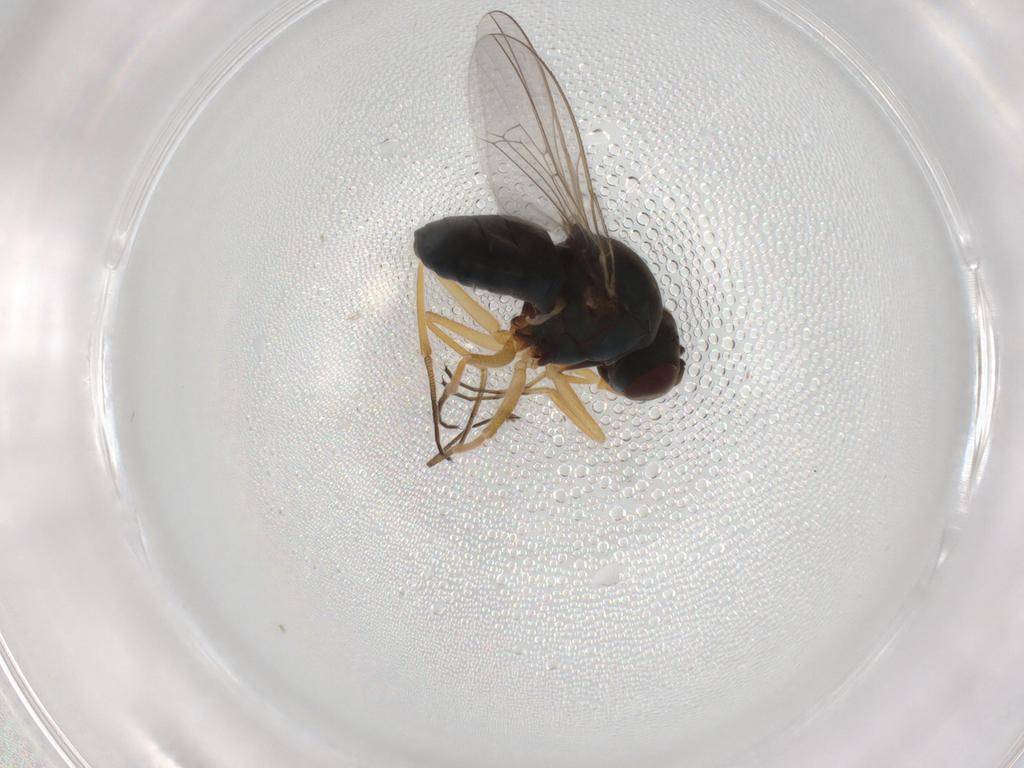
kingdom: Animalia
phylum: Arthropoda
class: Insecta
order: Diptera
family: Ephydridae
